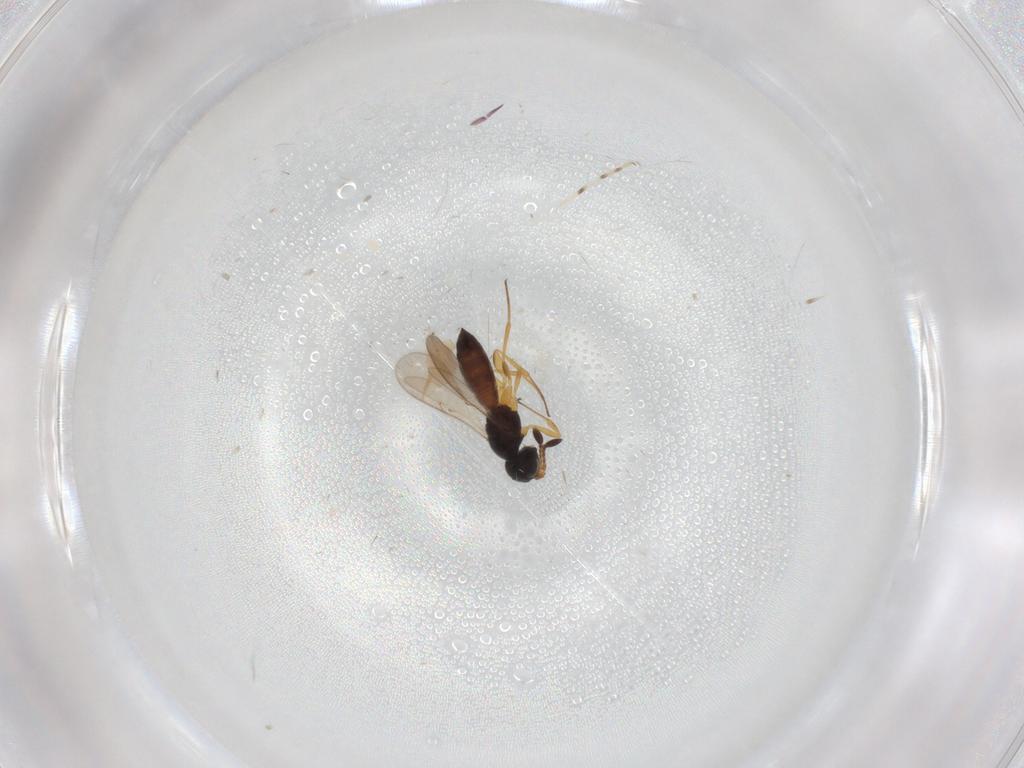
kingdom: Animalia
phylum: Arthropoda
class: Insecta
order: Hymenoptera
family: Scelionidae
